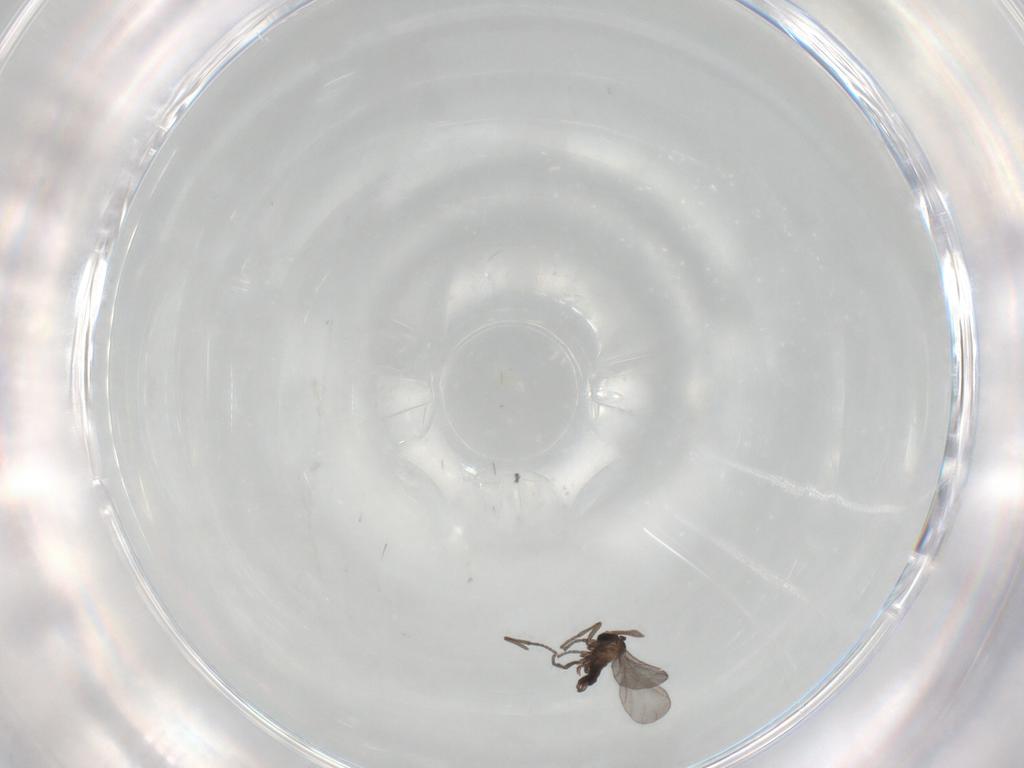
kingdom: Animalia
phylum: Arthropoda
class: Insecta
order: Diptera
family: Sciaridae
